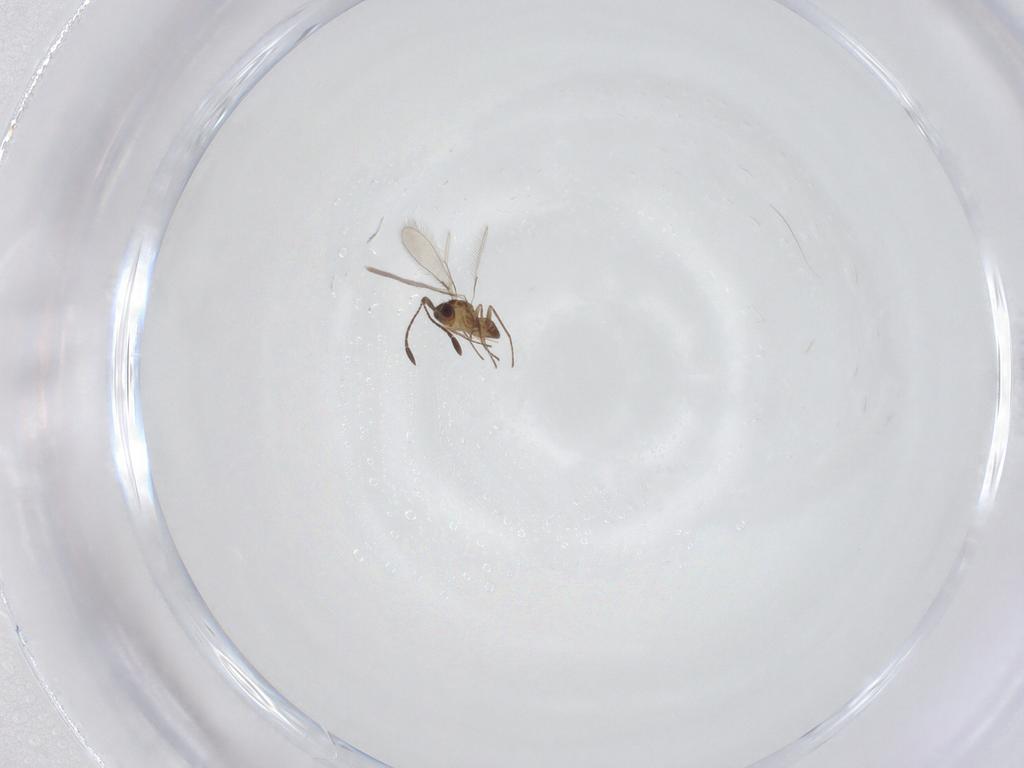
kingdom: Animalia
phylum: Arthropoda
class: Insecta
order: Hymenoptera
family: Mymaridae
